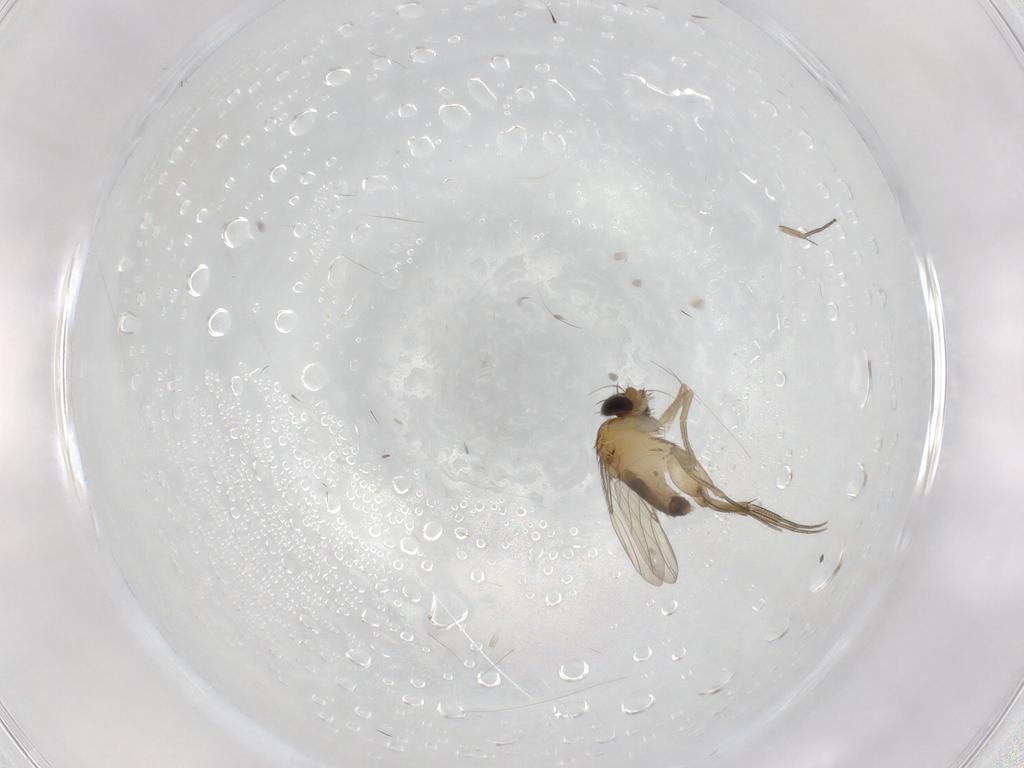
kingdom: Animalia
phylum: Arthropoda
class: Insecta
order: Diptera
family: Phoridae
